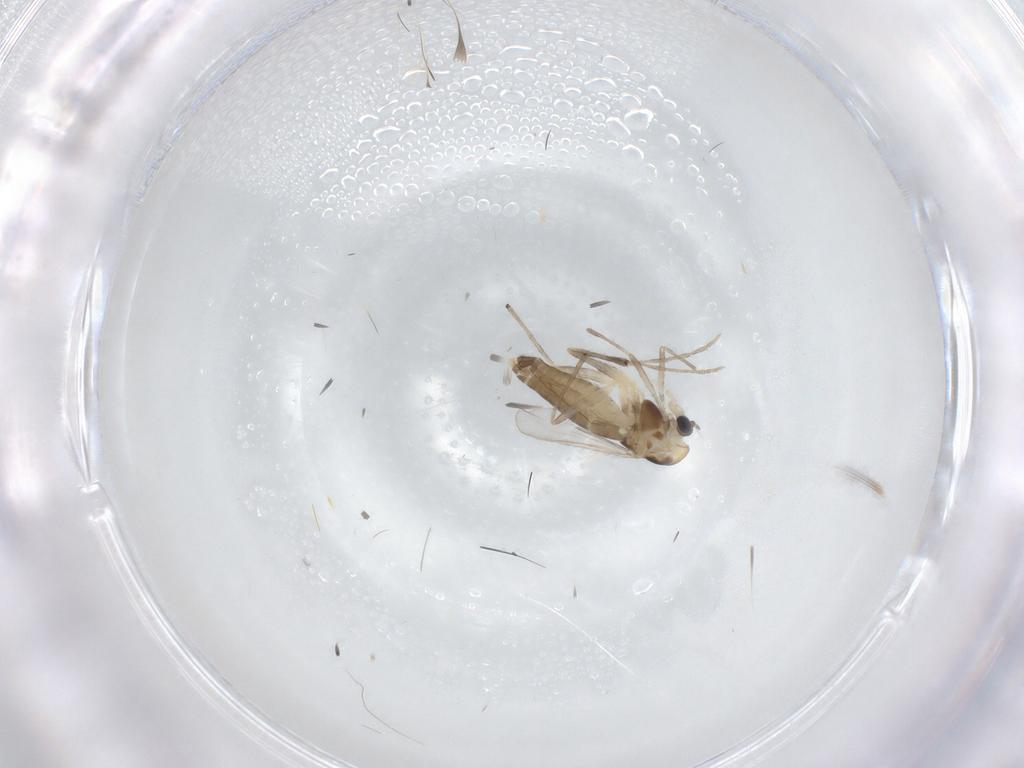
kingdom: Animalia
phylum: Arthropoda
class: Insecta
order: Diptera
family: Chironomidae
